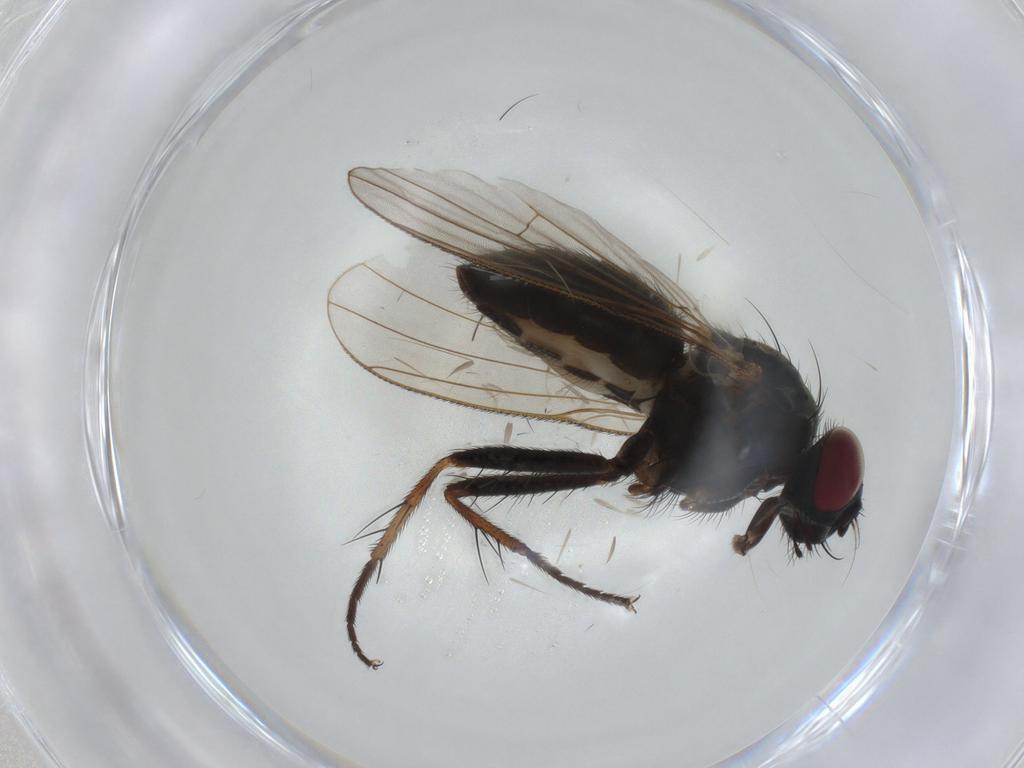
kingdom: Animalia
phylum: Arthropoda
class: Insecta
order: Diptera
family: Muscidae
